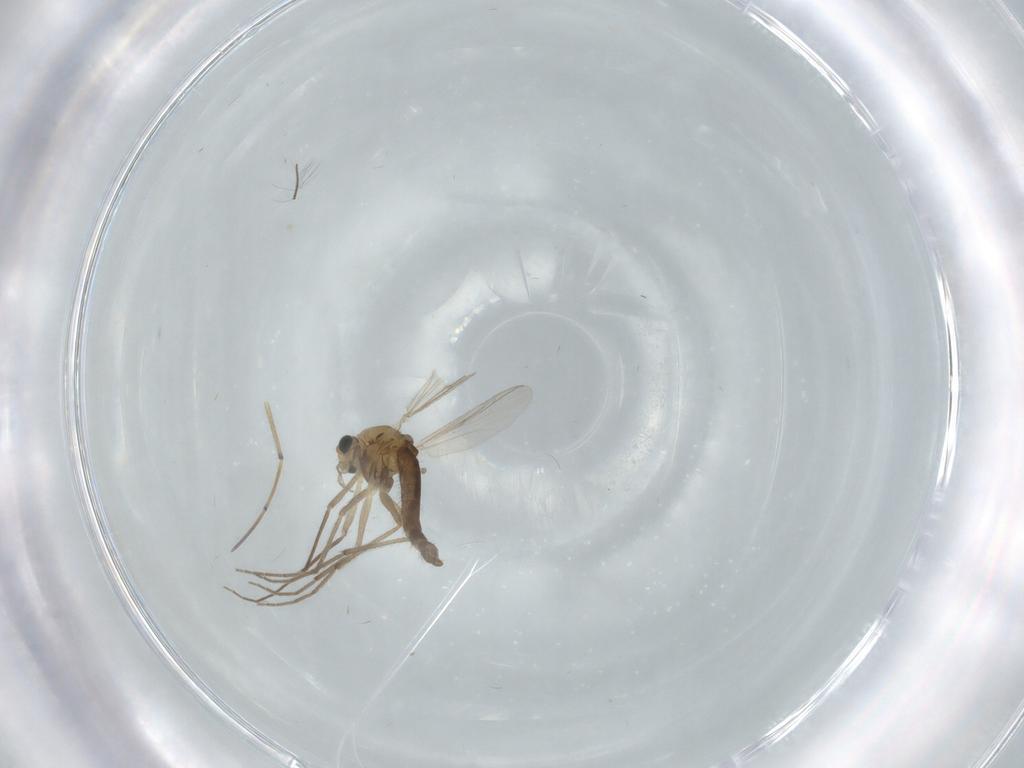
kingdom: Animalia
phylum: Arthropoda
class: Insecta
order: Diptera
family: Chironomidae
